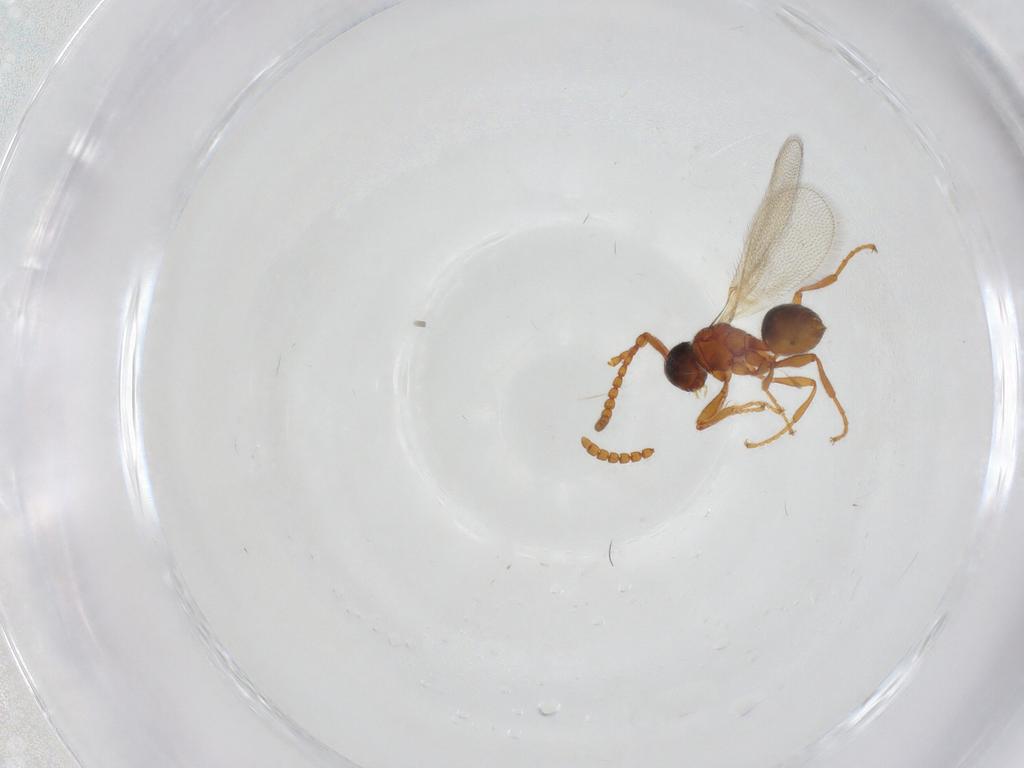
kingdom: Animalia
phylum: Arthropoda
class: Insecta
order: Hymenoptera
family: Diapriidae
